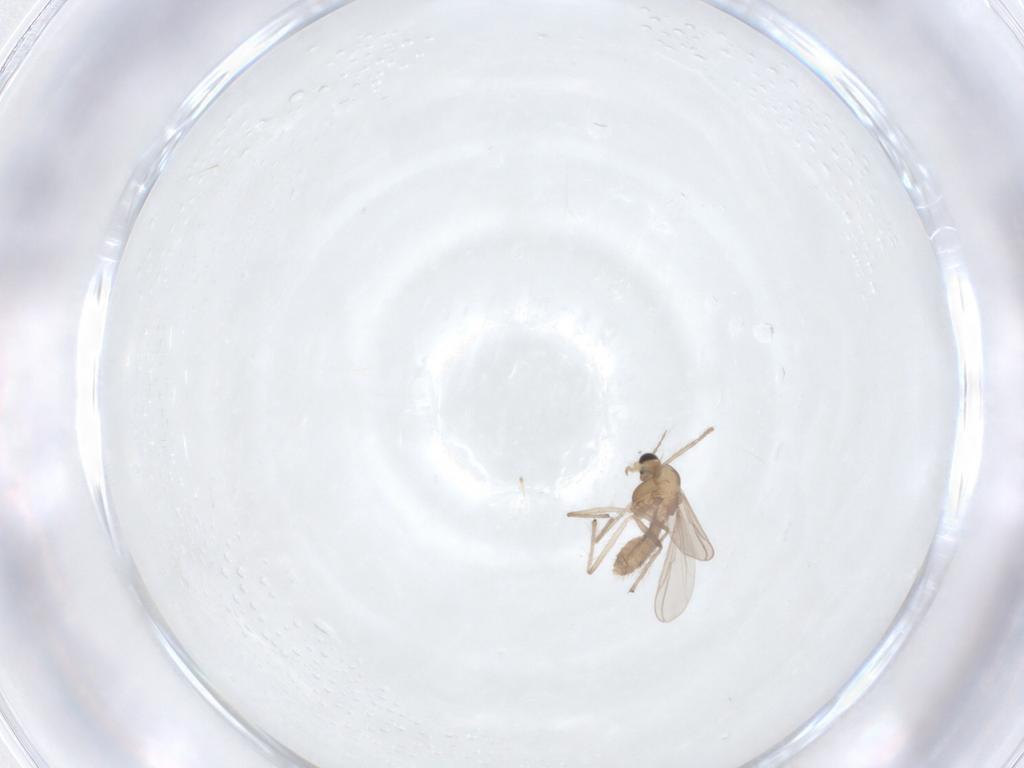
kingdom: Animalia
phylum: Arthropoda
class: Insecta
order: Diptera
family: Chironomidae
